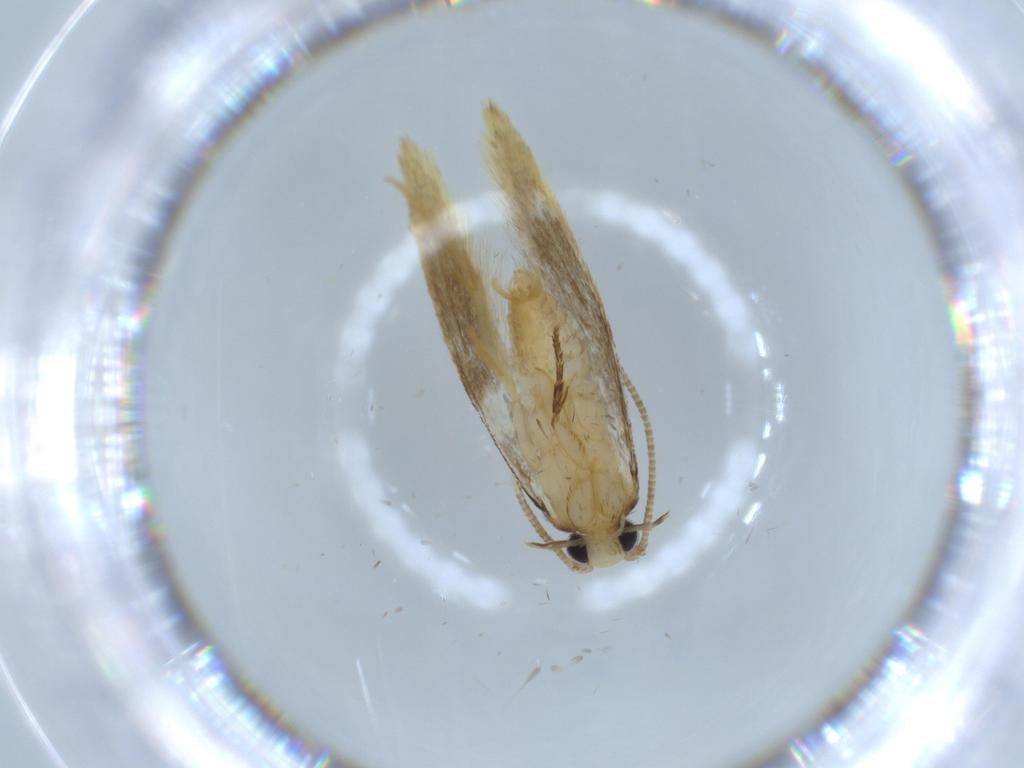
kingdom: Animalia
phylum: Arthropoda
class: Insecta
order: Lepidoptera
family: Tineidae
